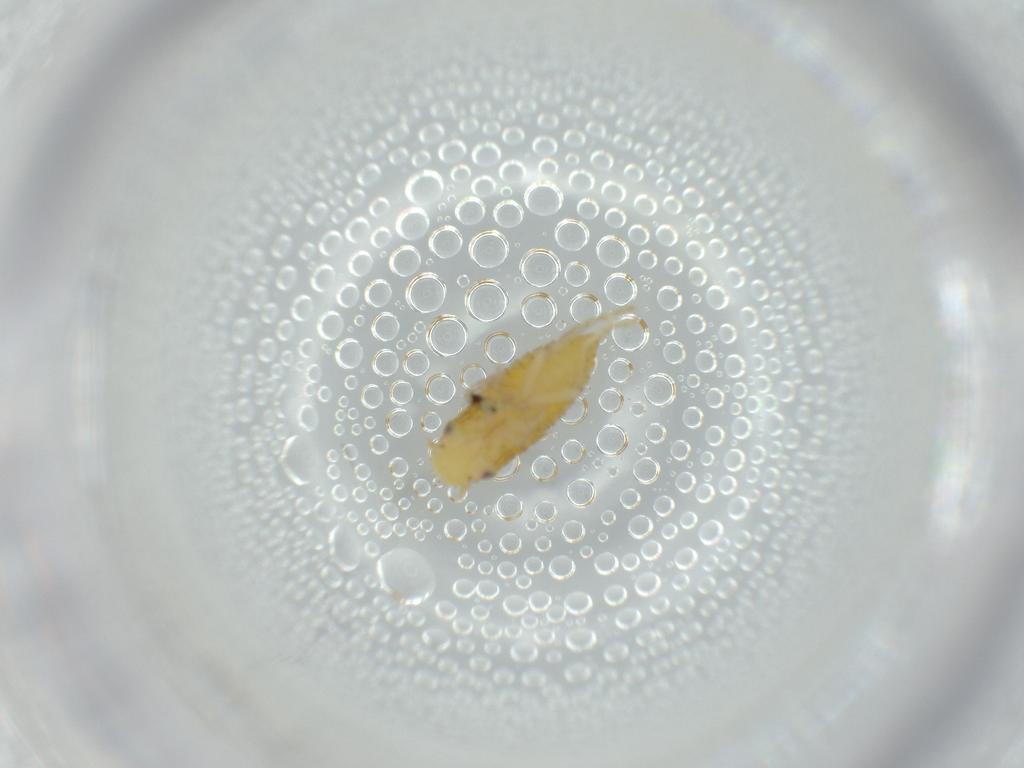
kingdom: Animalia
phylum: Arthropoda
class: Insecta
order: Hemiptera
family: Cicadellidae
